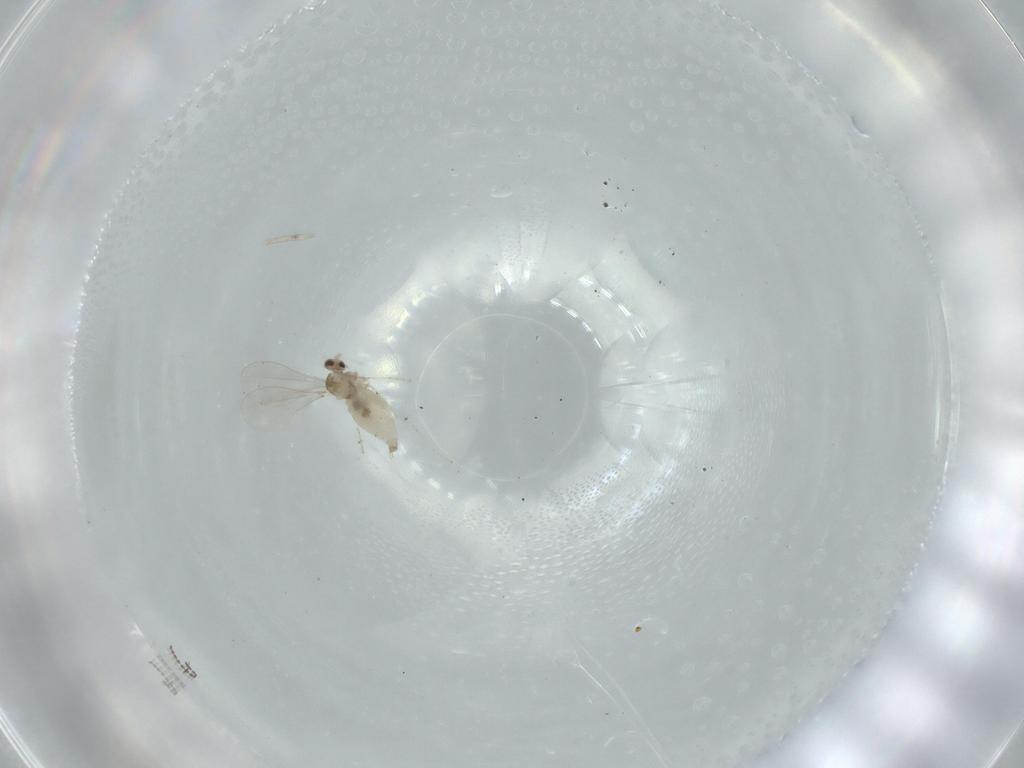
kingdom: Animalia
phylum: Arthropoda
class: Insecta
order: Diptera
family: Cecidomyiidae
